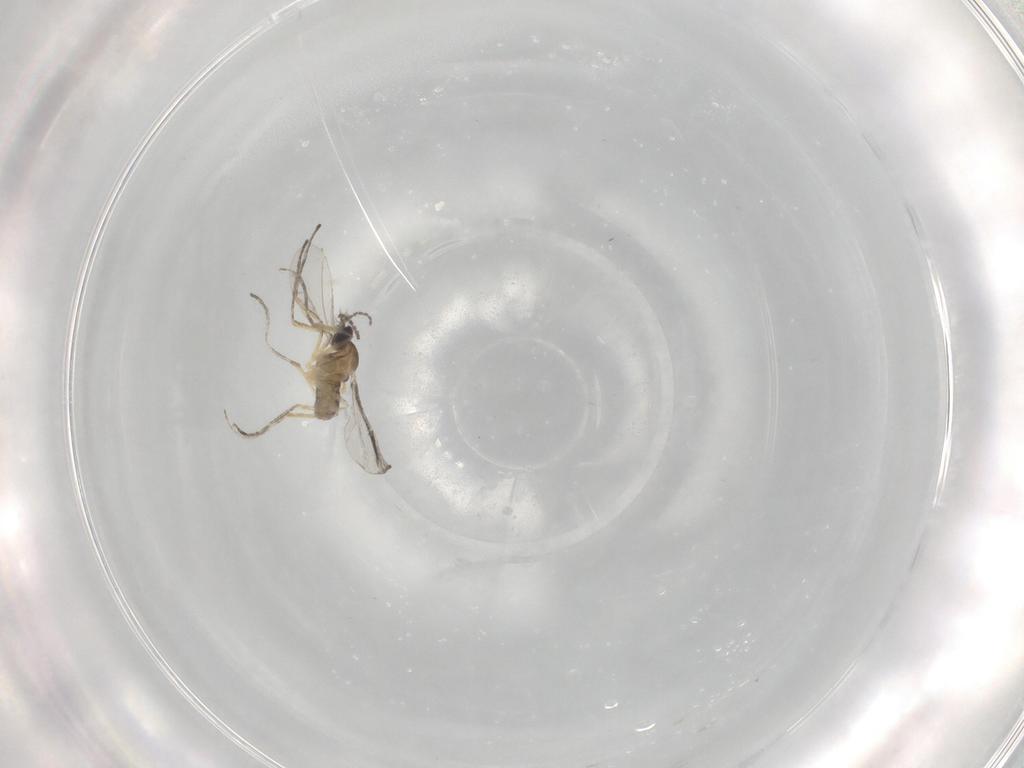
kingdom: Animalia
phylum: Arthropoda
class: Insecta
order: Diptera
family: Cecidomyiidae
